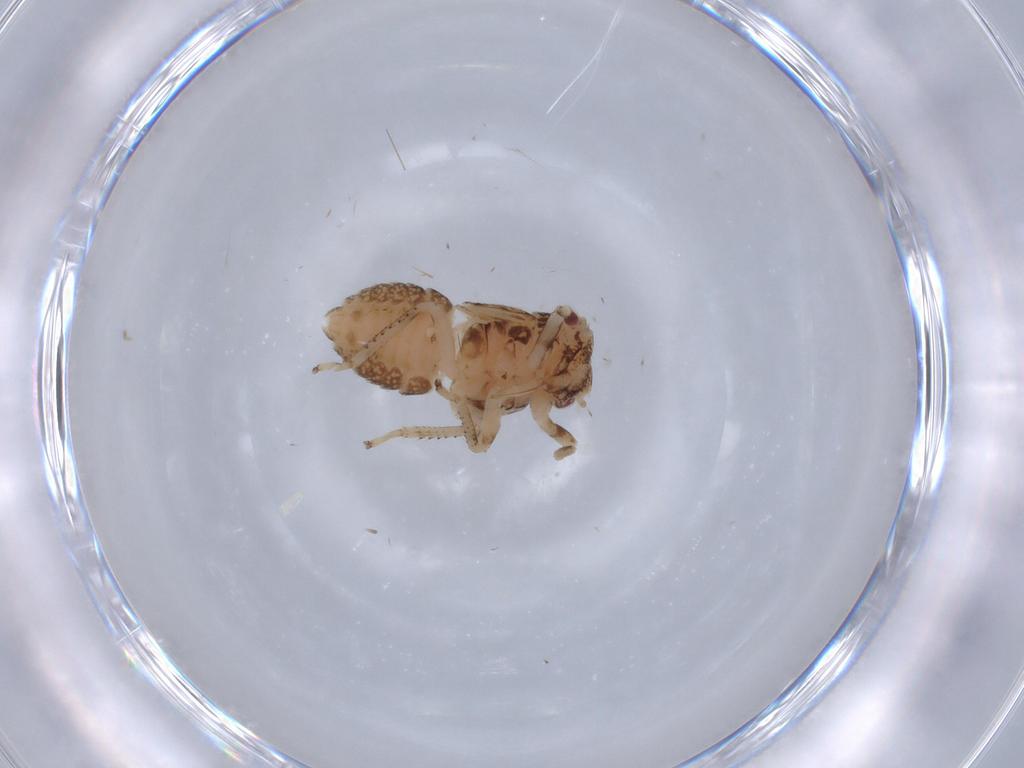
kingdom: Animalia
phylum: Arthropoda
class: Insecta
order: Hemiptera
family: Cicadellidae
